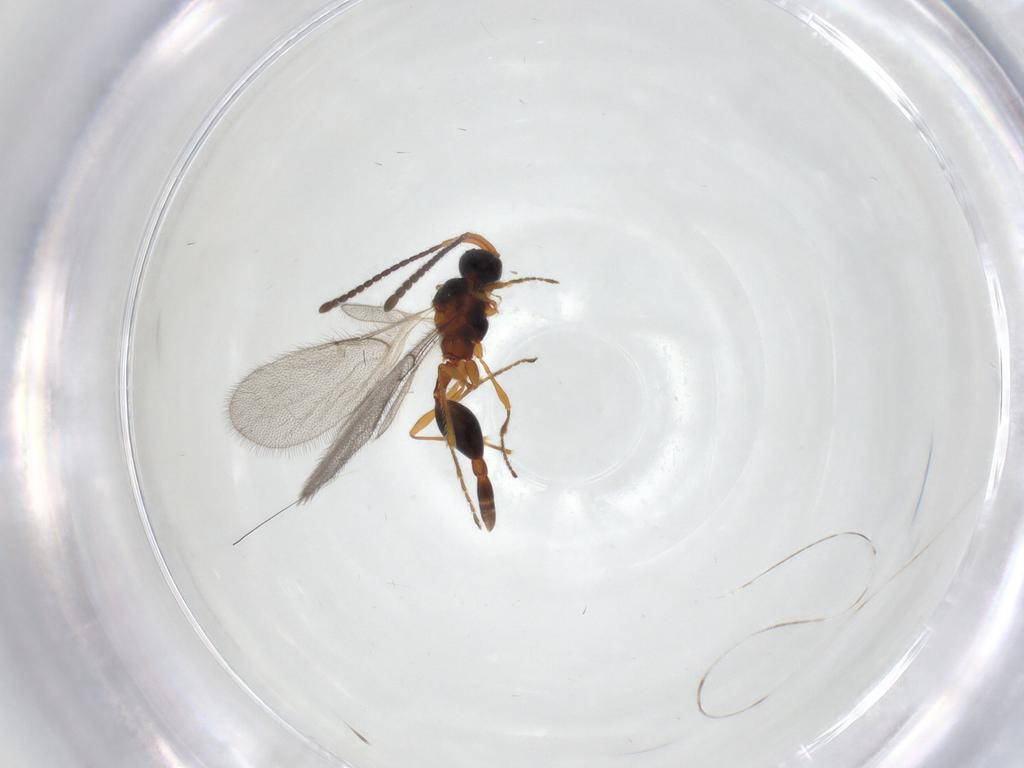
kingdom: Animalia
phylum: Arthropoda
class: Insecta
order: Hymenoptera
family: Diapriidae
